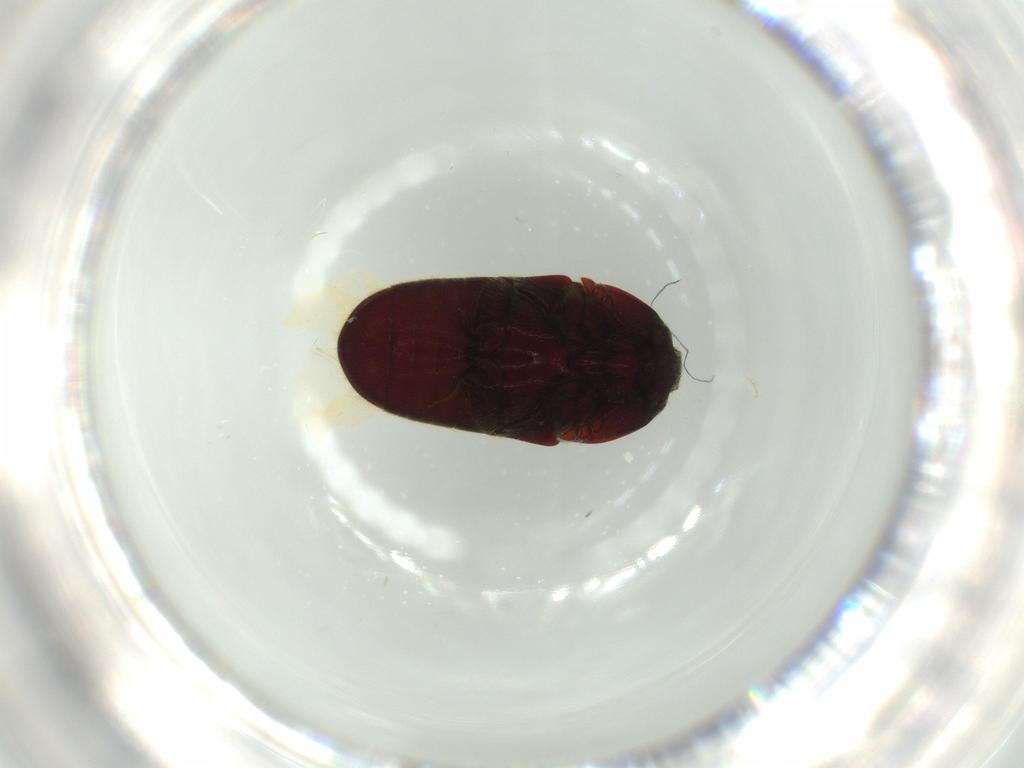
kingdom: Animalia
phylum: Arthropoda
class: Insecta
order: Coleoptera
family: Throscidae
